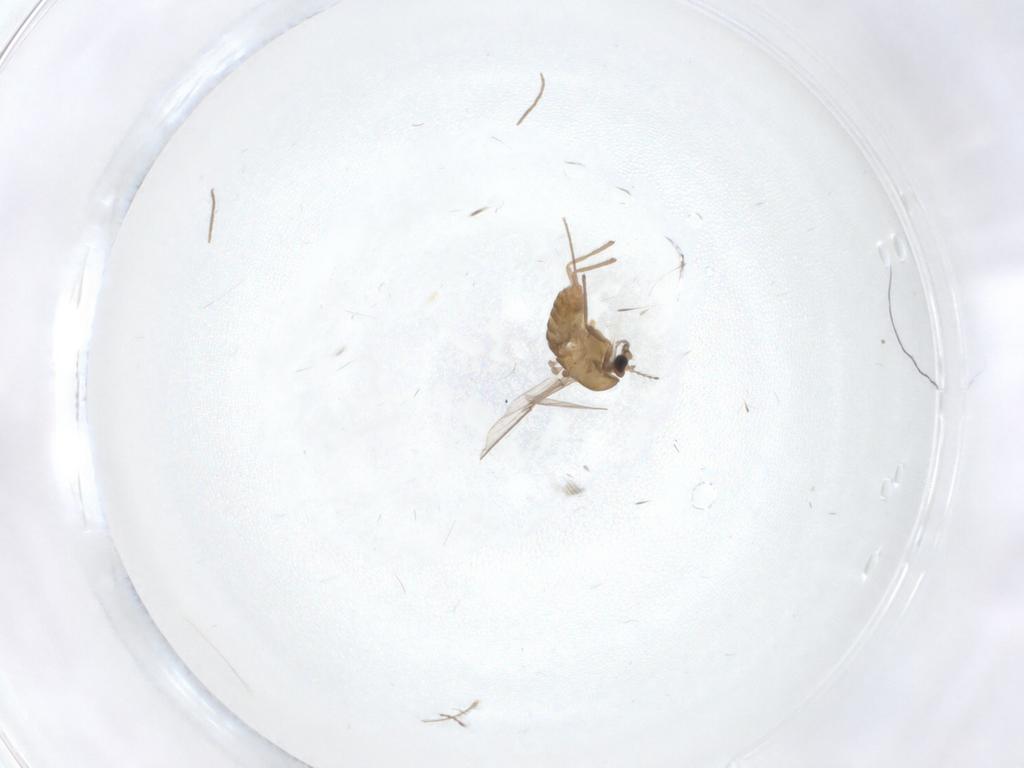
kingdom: Animalia
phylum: Arthropoda
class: Insecta
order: Diptera
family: Chironomidae
